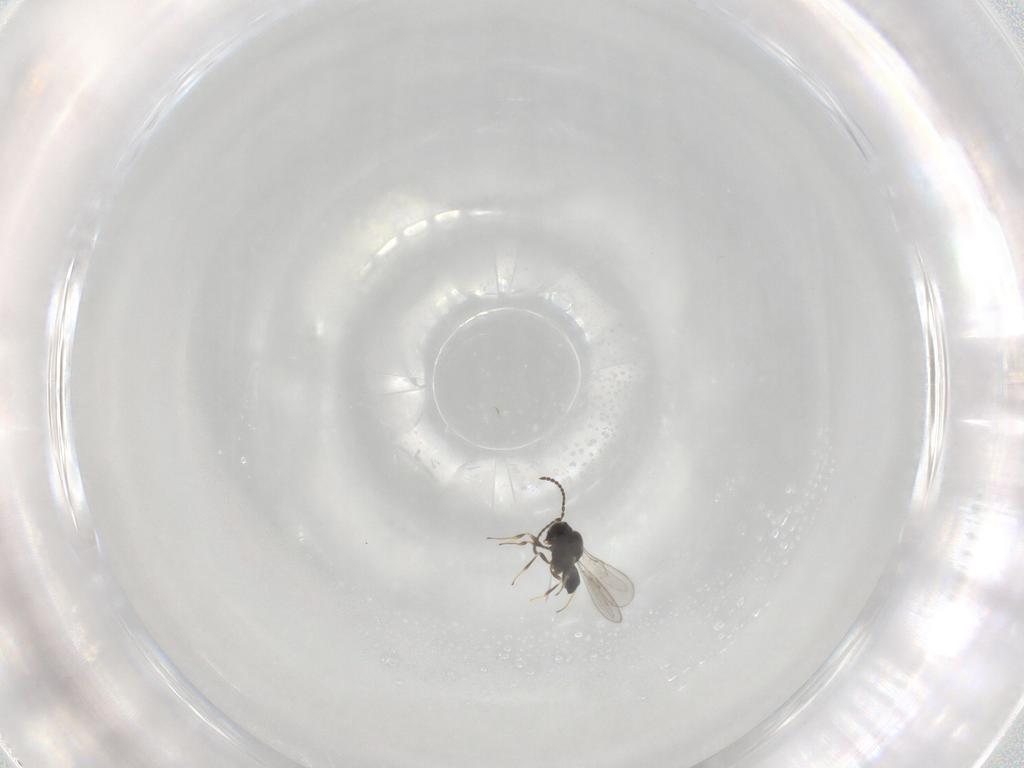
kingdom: Animalia
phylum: Arthropoda
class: Insecta
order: Hymenoptera
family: Scelionidae
